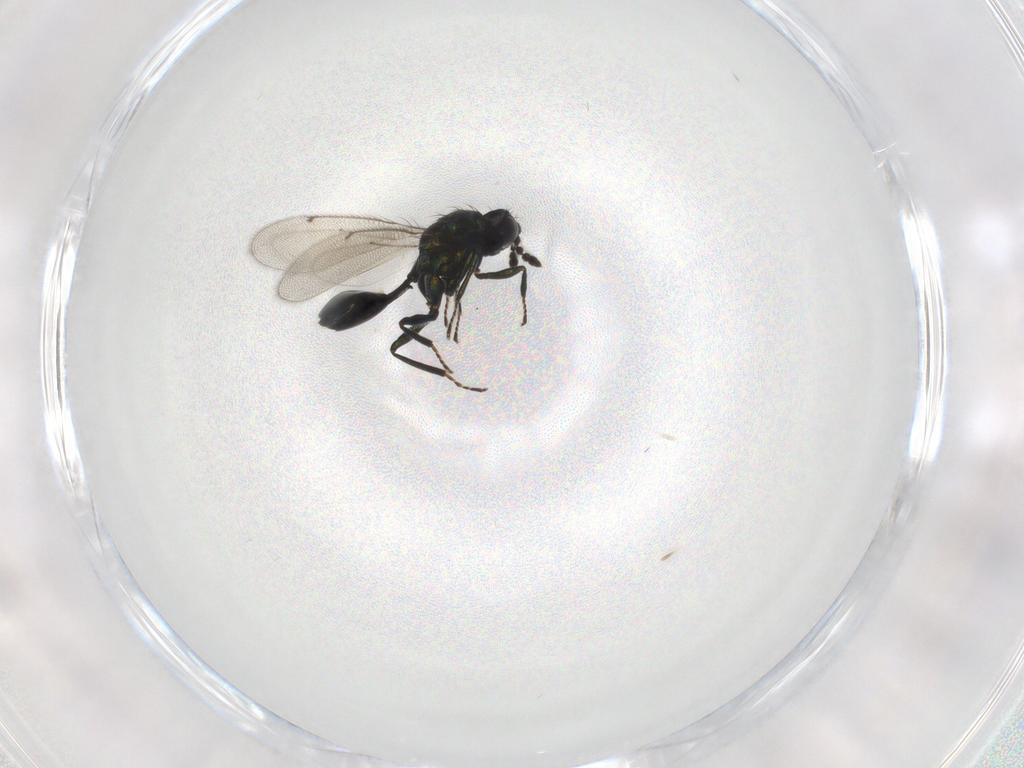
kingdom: Animalia
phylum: Arthropoda
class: Insecta
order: Hymenoptera
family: Eulophidae
